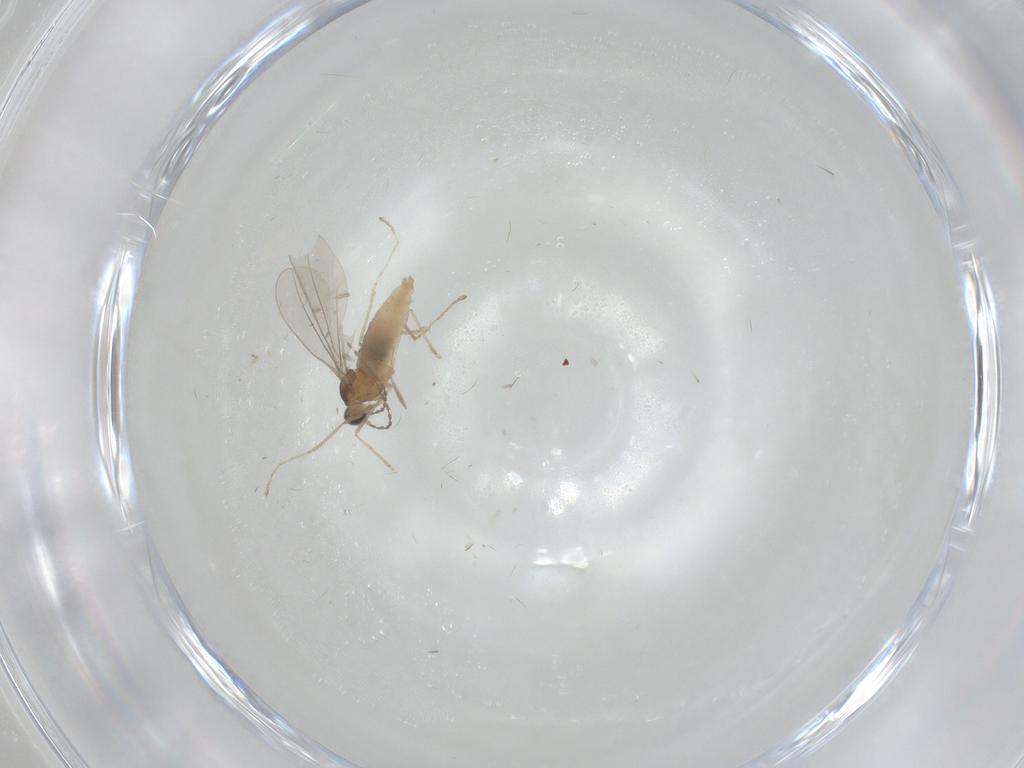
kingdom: Animalia
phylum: Arthropoda
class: Insecta
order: Diptera
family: Cecidomyiidae
